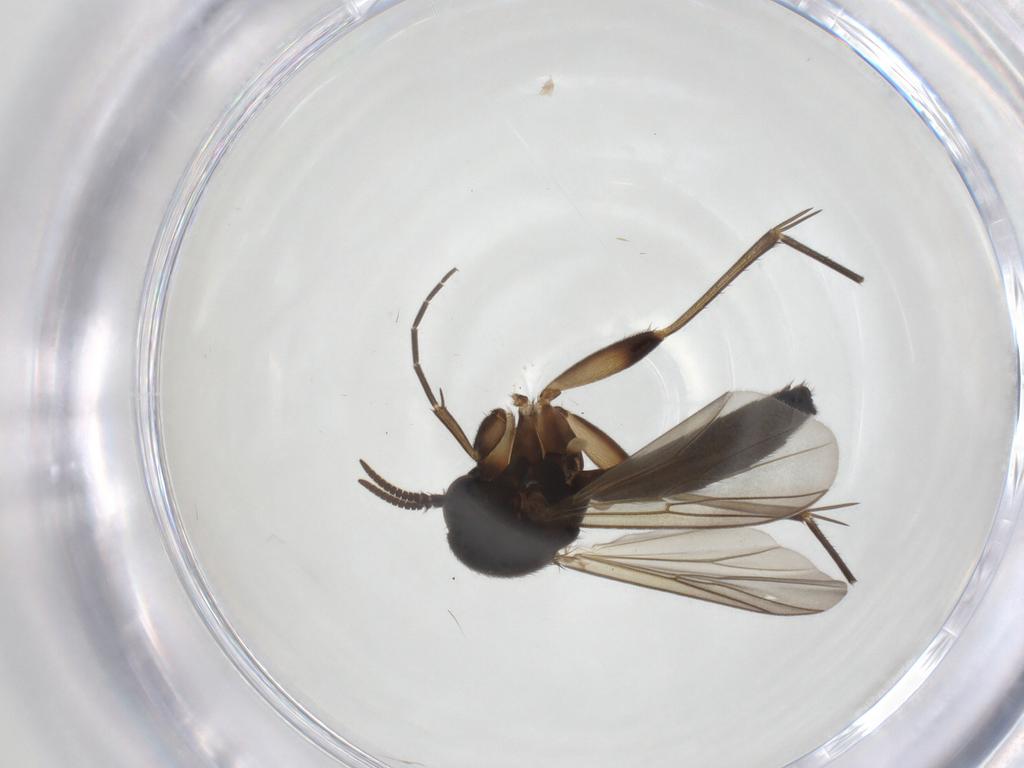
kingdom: Animalia
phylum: Arthropoda
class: Insecta
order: Diptera
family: Mycetophilidae
